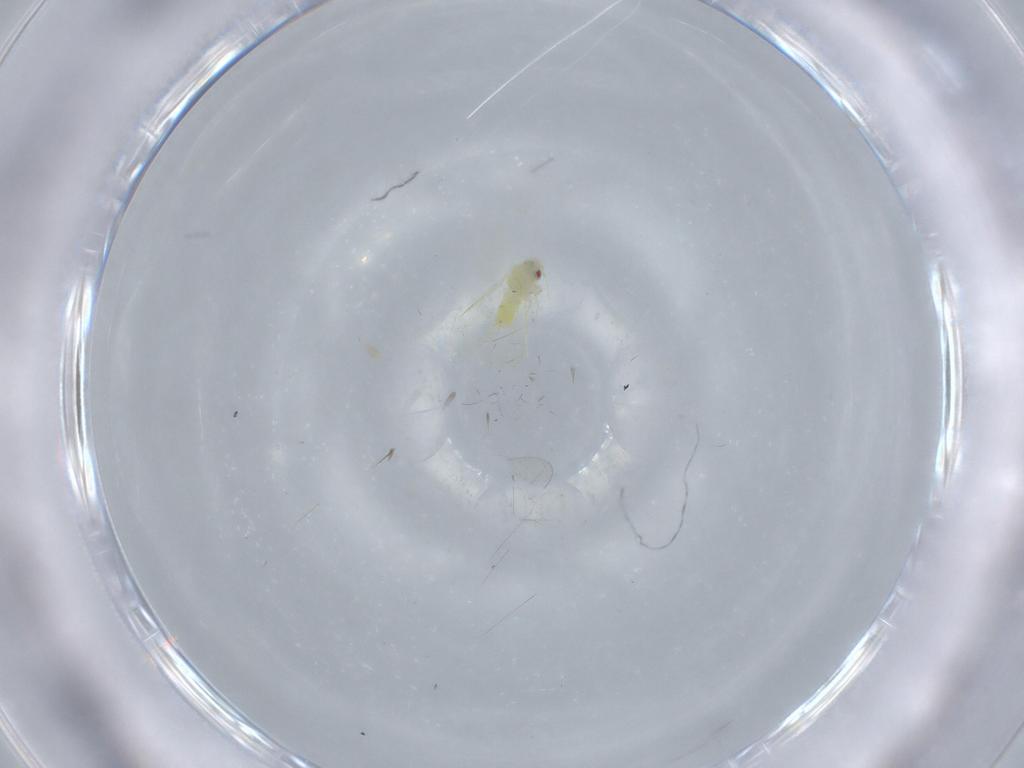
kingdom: Animalia
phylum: Arthropoda
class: Insecta
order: Hemiptera
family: Aleyrodidae
